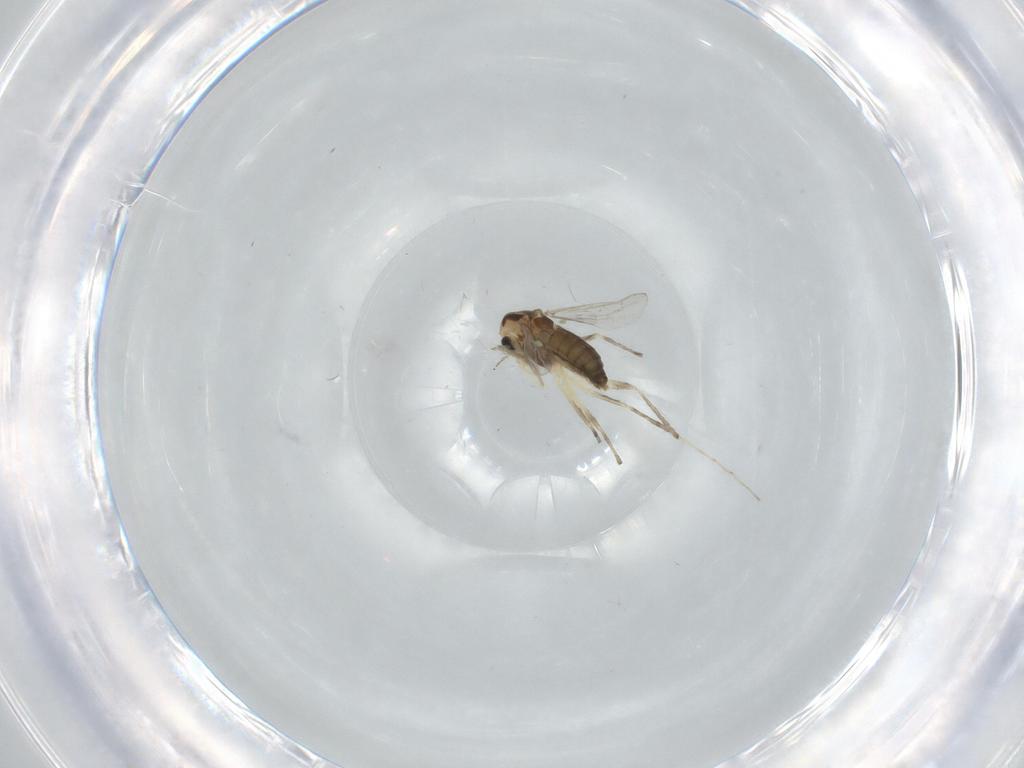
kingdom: Animalia
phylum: Arthropoda
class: Insecta
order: Diptera
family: Chironomidae
